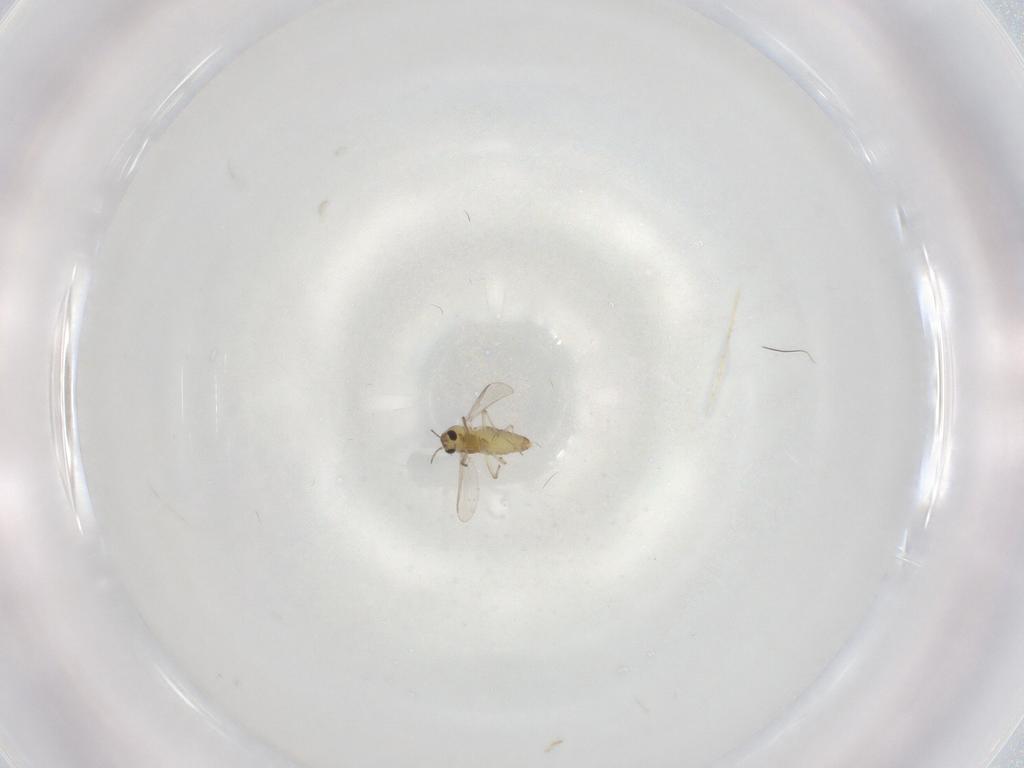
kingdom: Animalia
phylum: Arthropoda
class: Insecta
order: Diptera
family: Chironomidae
